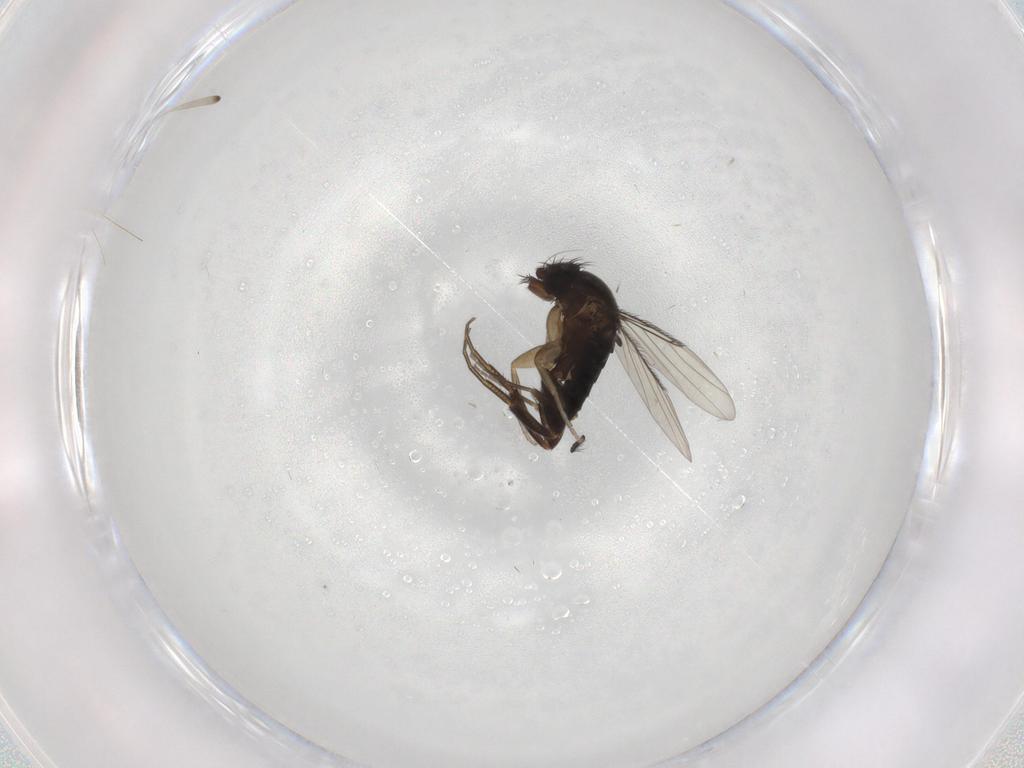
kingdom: Animalia
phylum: Arthropoda
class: Insecta
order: Diptera
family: Phoridae
